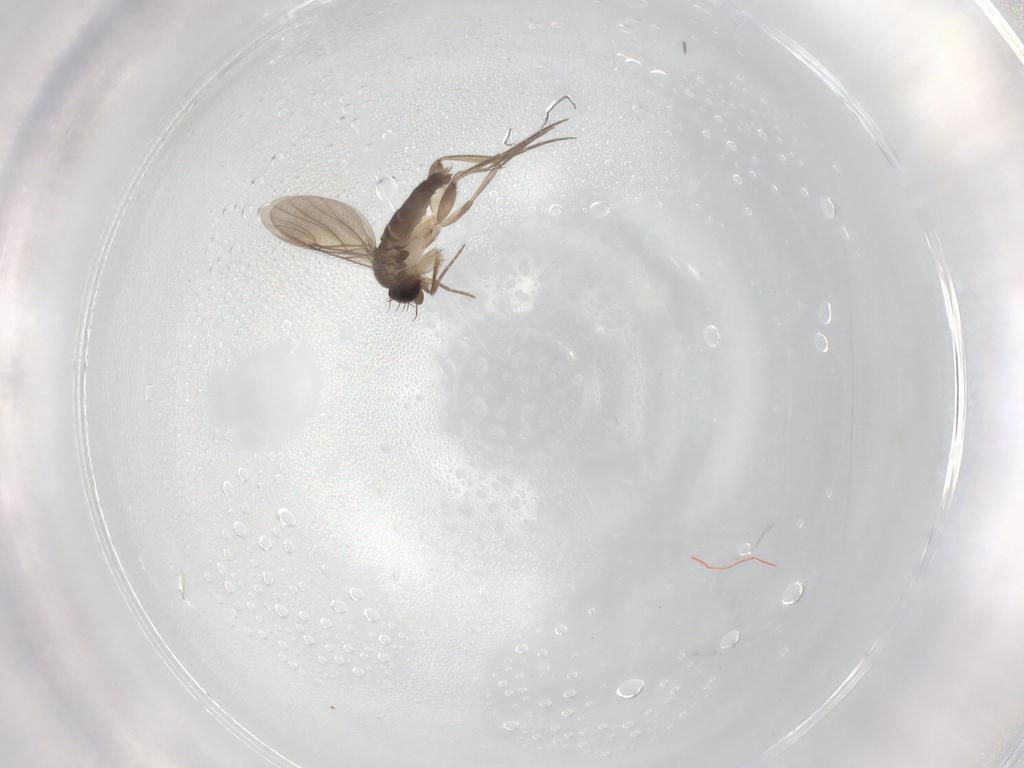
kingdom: Animalia
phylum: Arthropoda
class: Insecta
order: Diptera
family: Phoridae
